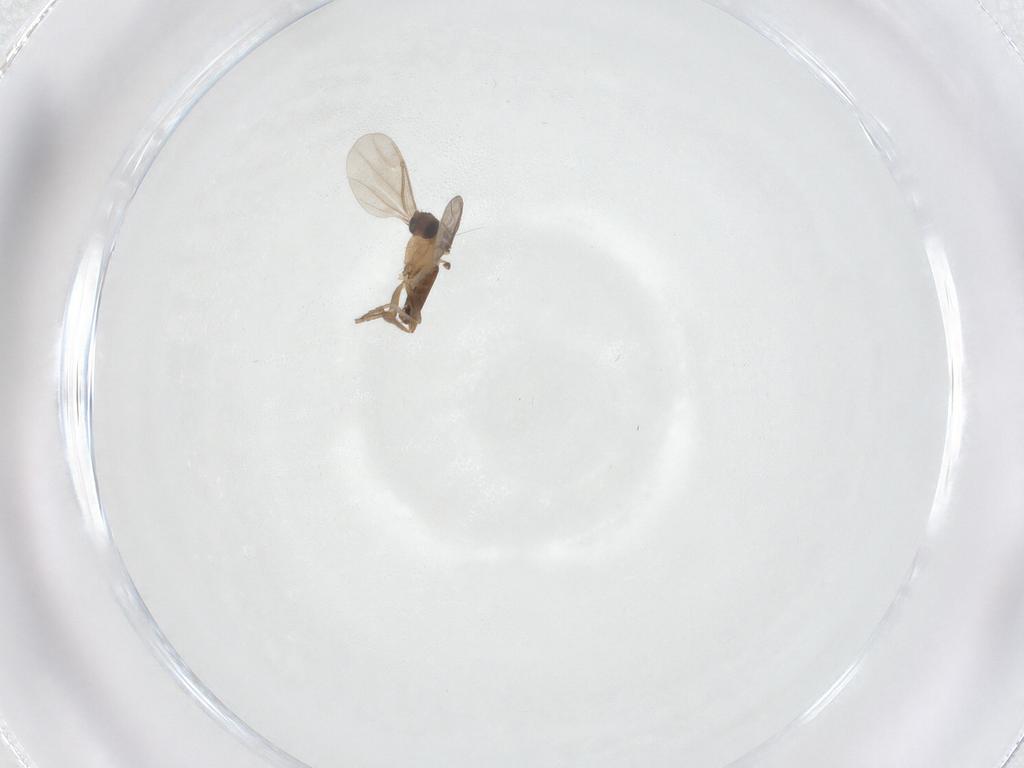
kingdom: Animalia
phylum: Arthropoda
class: Insecta
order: Diptera
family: Phoridae
